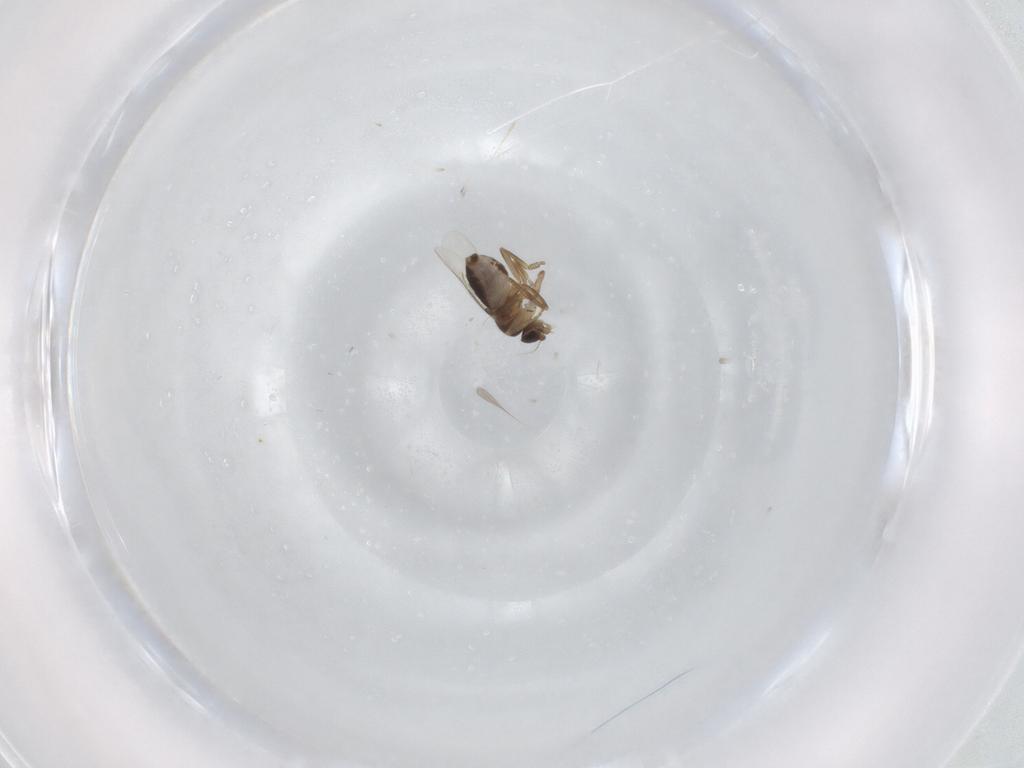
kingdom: Animalia
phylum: Arthropoda
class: Insecta
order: Diptera
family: Phoridae
